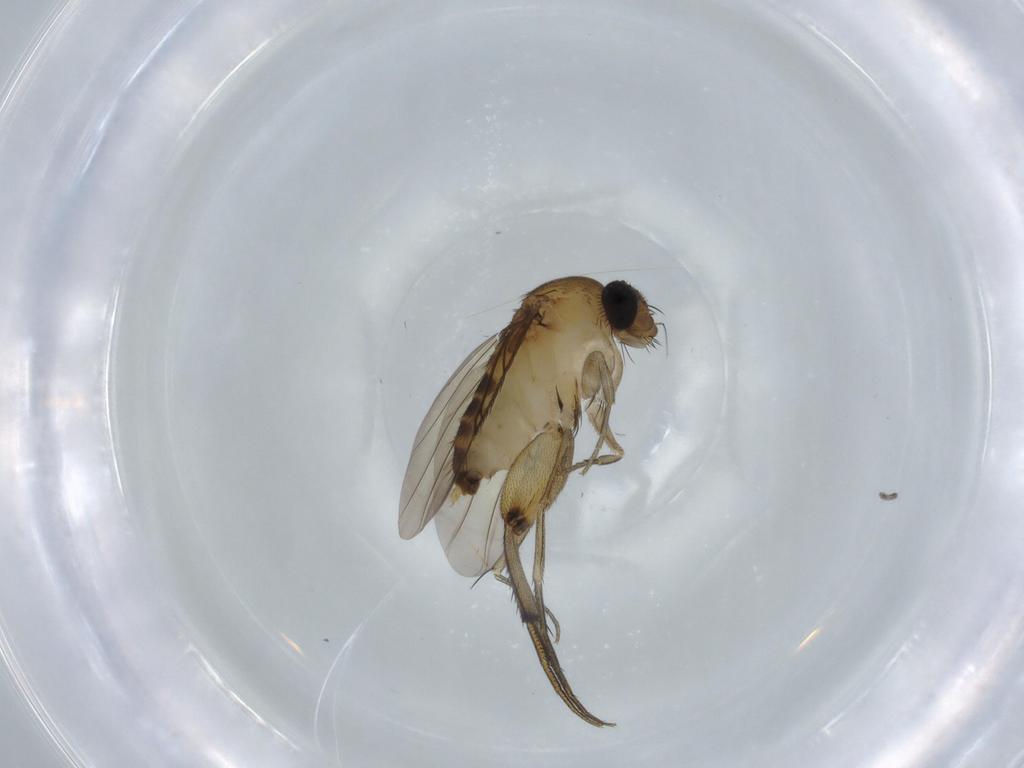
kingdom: Animalia
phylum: Arthropoda
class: Insecta
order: Diptera
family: Phoridae
